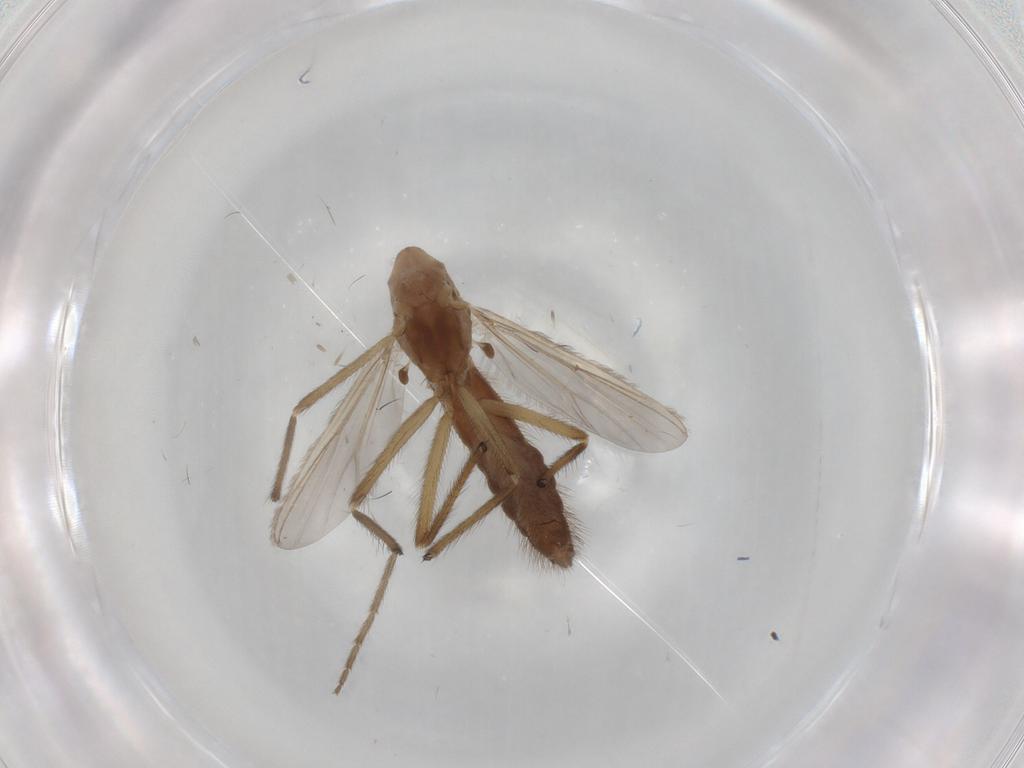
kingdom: Animalia
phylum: Arthropoda
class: Insecta
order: Diptera
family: Chironomidae
